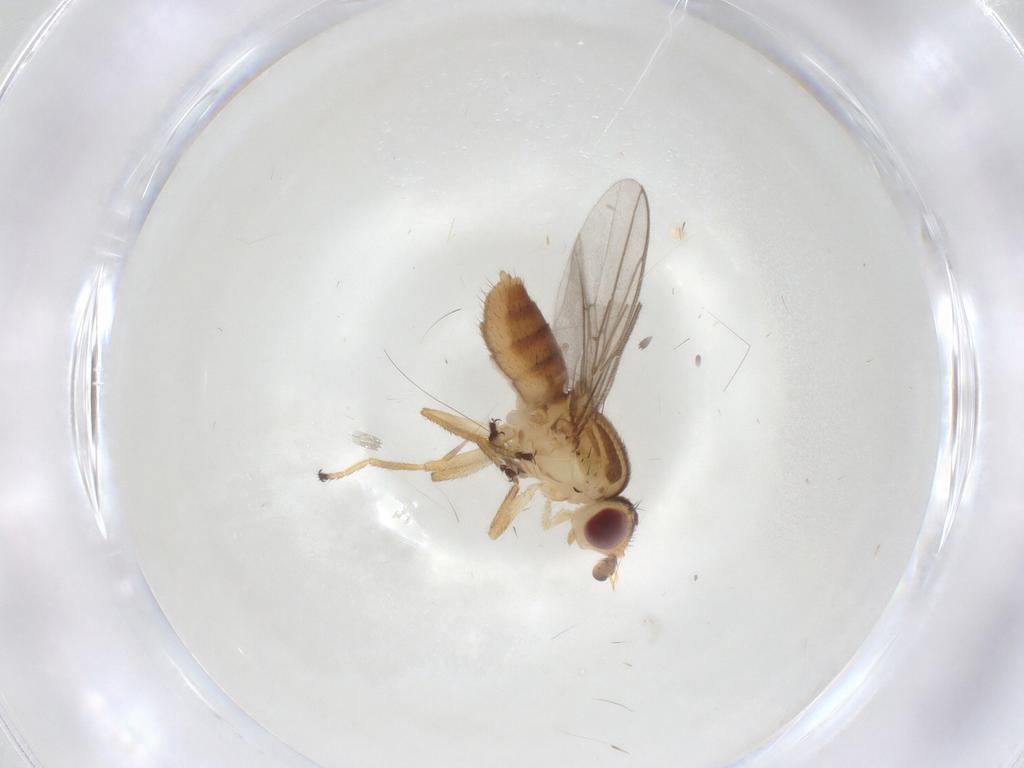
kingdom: Animalia
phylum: Arthropoda
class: Insecta
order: Diptera
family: Chloropidae
